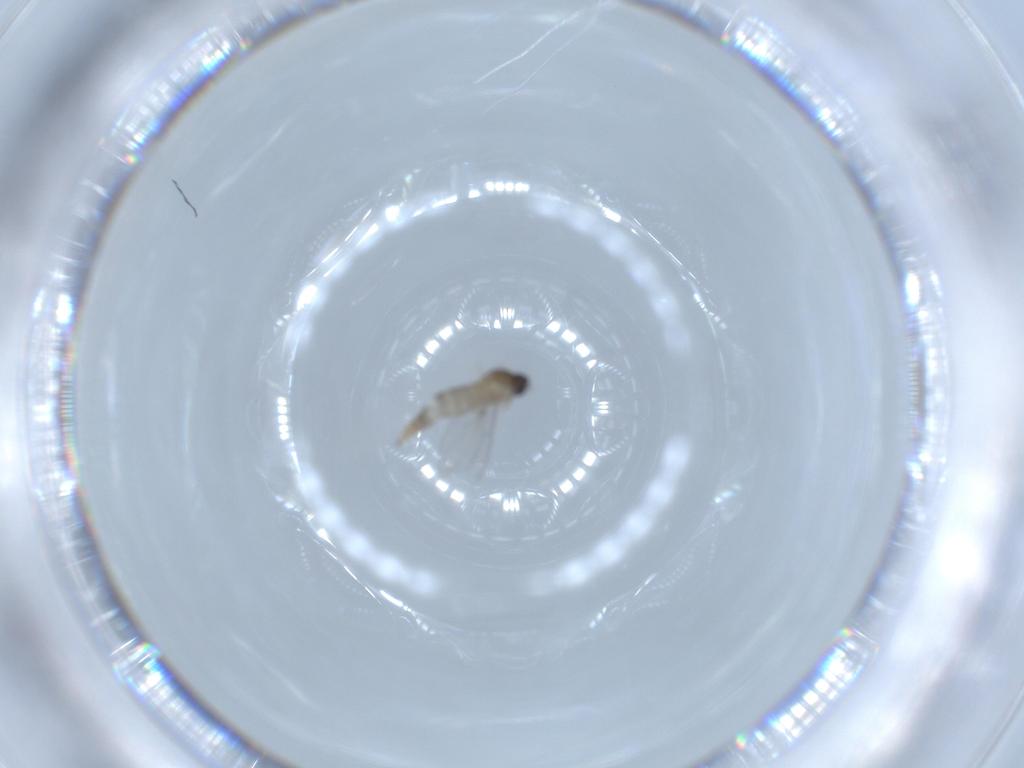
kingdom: Animalia
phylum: Arthropoda
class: Insecta
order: Diptera
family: Cecidomyiidae
